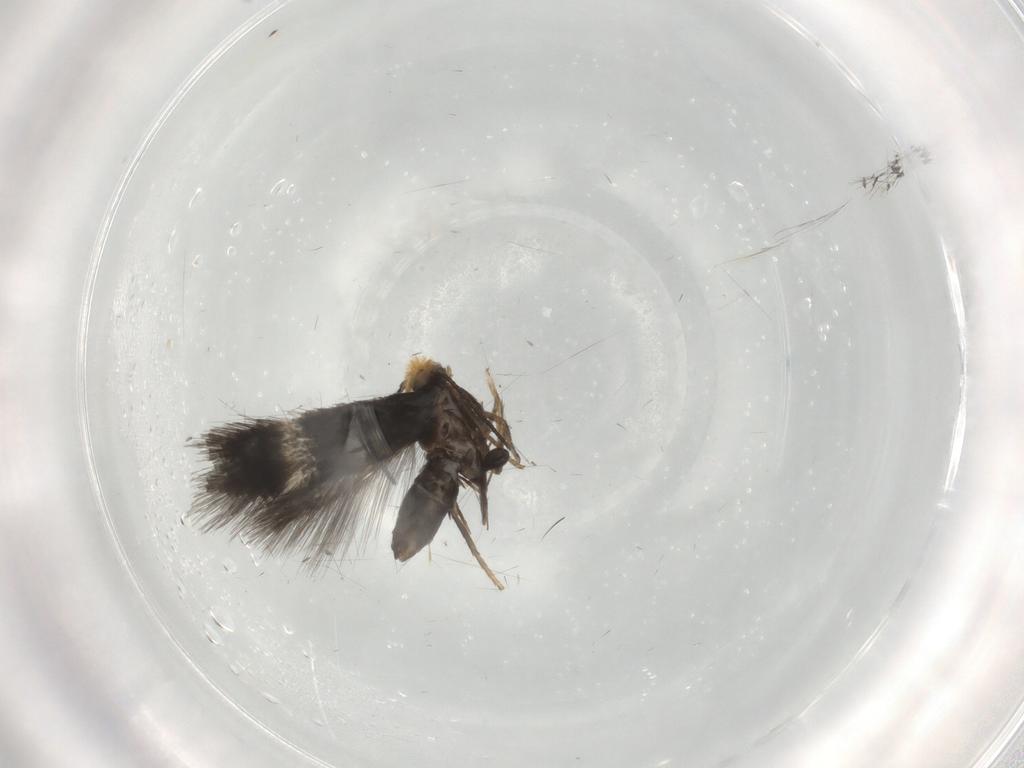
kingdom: Animalia
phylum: Arthropoda
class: Insecta
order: Lepidoptera
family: Nepticulidae
